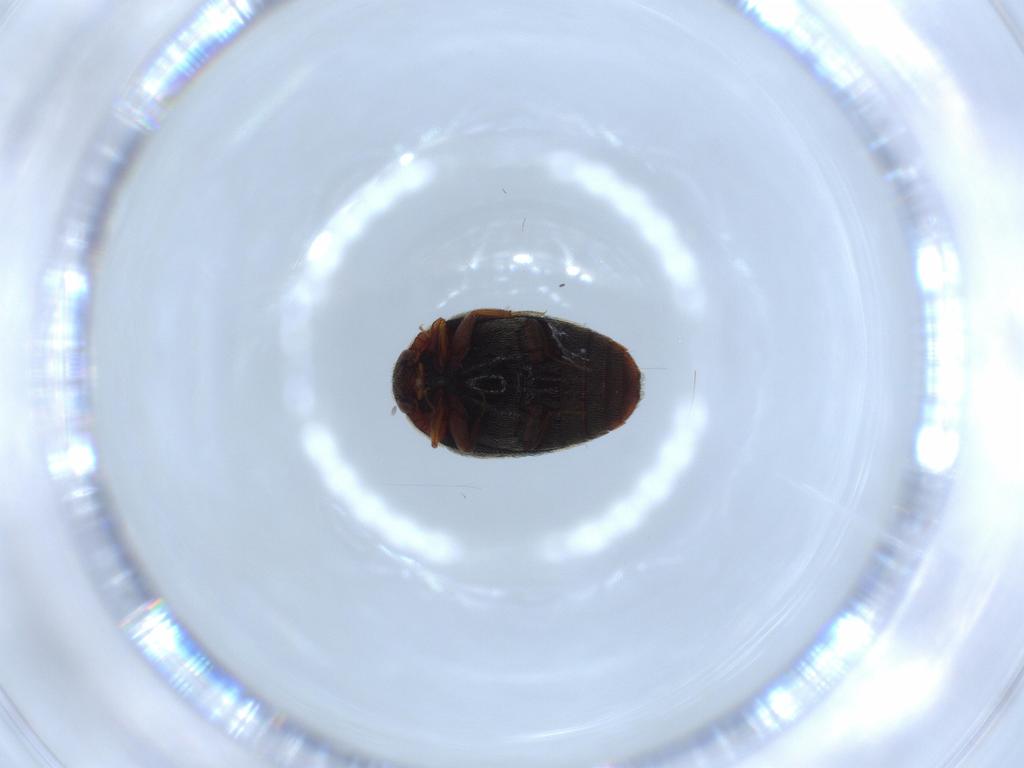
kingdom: Animalia
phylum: Arthropoda
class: Insecta
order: Coleoptera
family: Dermestidae
